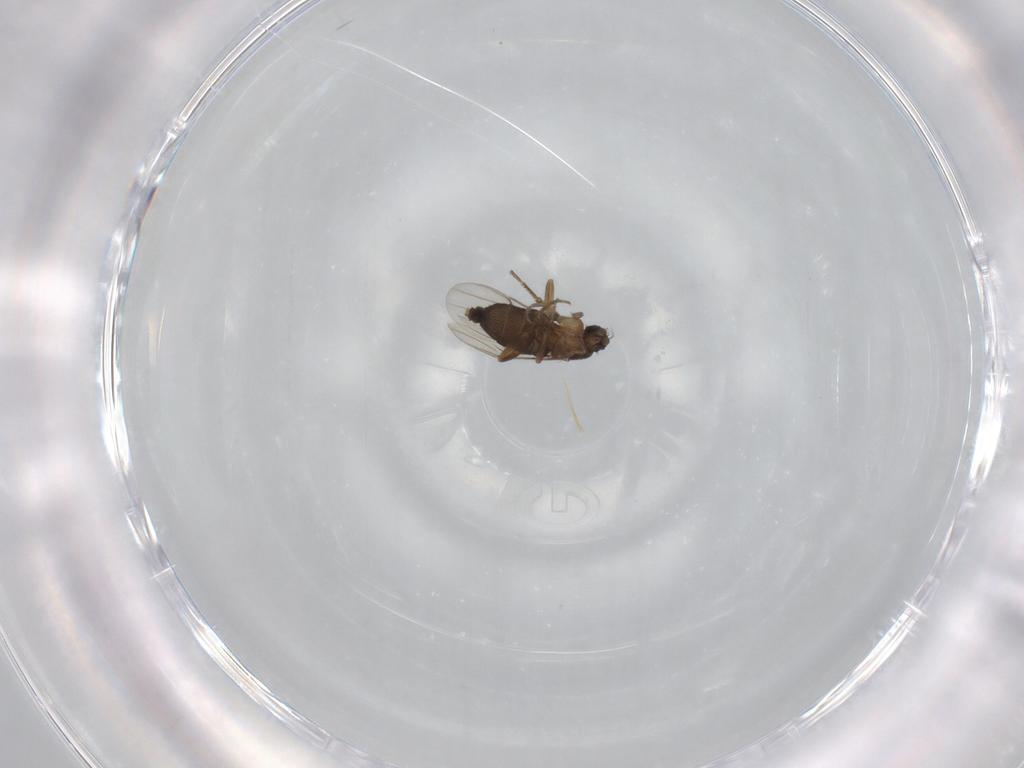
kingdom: Animalia
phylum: Arthropoda
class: Insecta
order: Diptera
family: Phoridae
